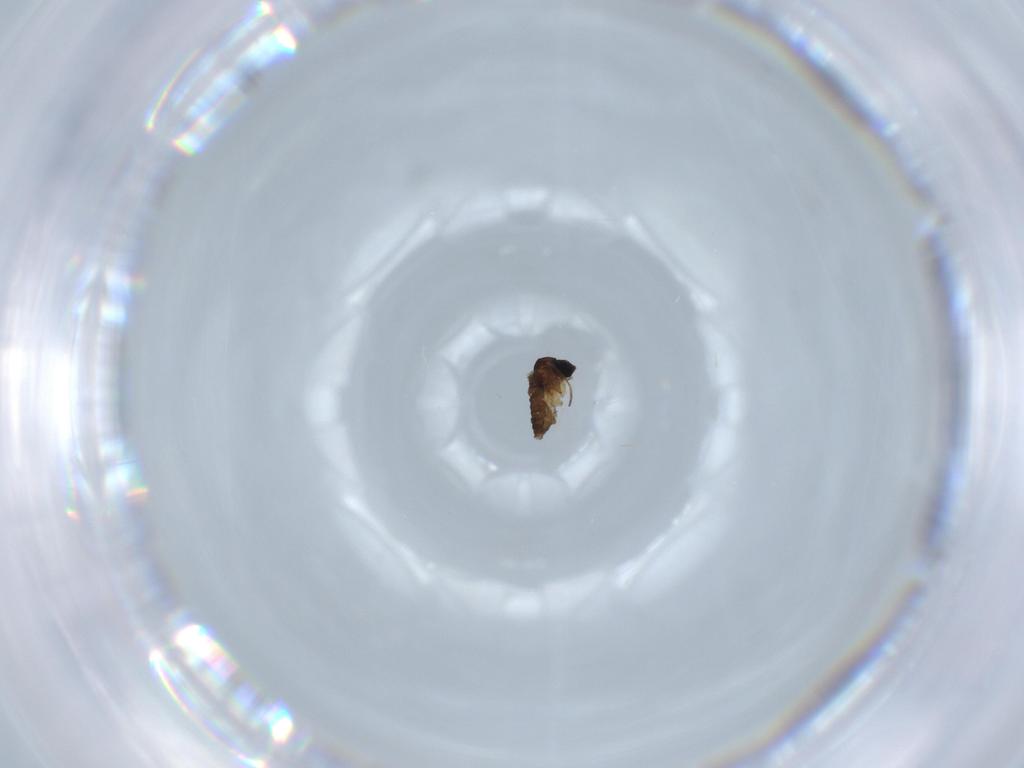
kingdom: Animalia
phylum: Arthropoda
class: Insecta
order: Diptera
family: Sciaridae
